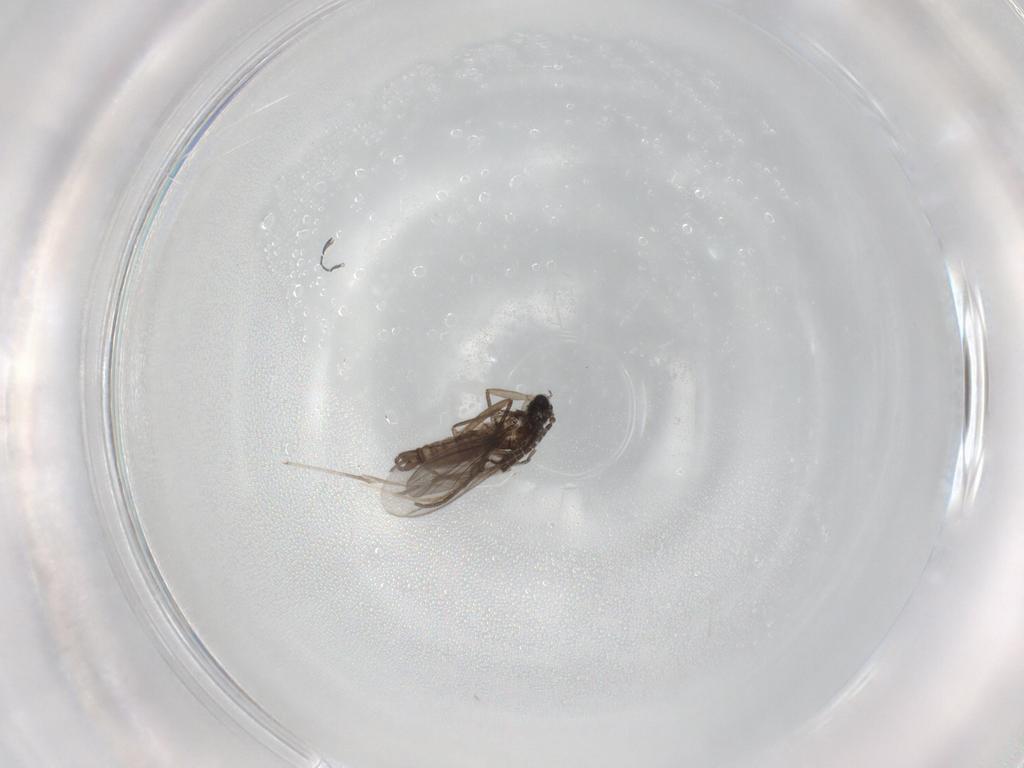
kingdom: Animalia
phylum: Arthropoda
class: Insecta
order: Diptera
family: Sciaridae
